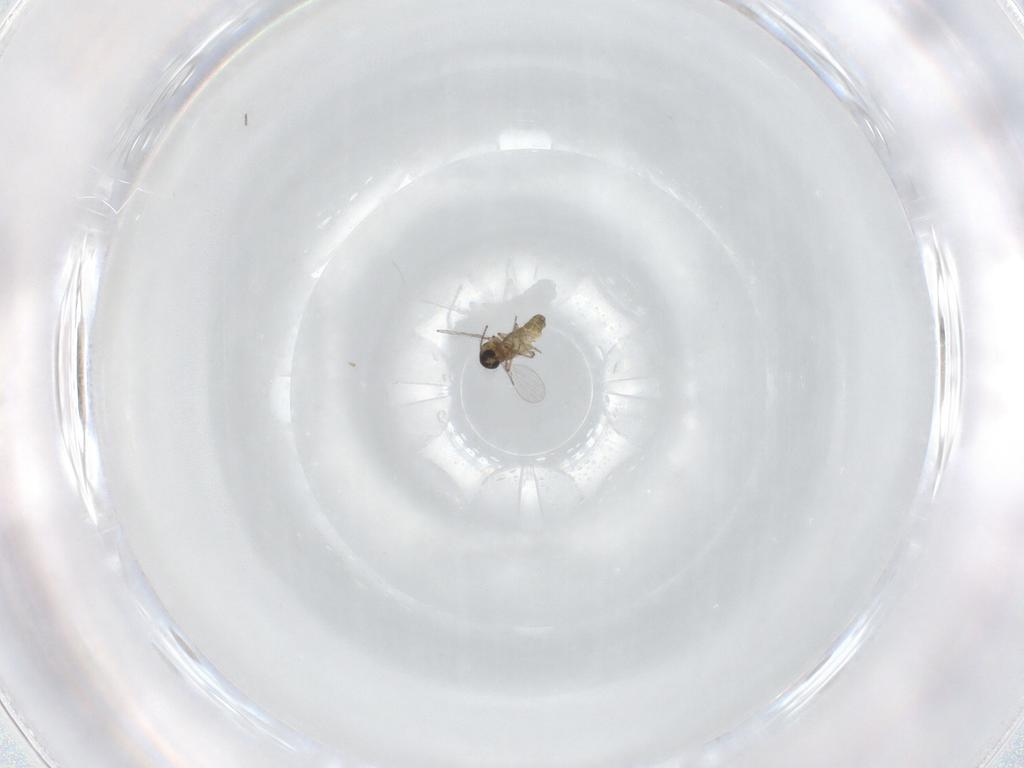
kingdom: Animalia
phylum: Arthropoda
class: Insecta
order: Diptera
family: Ceratopogonidae
